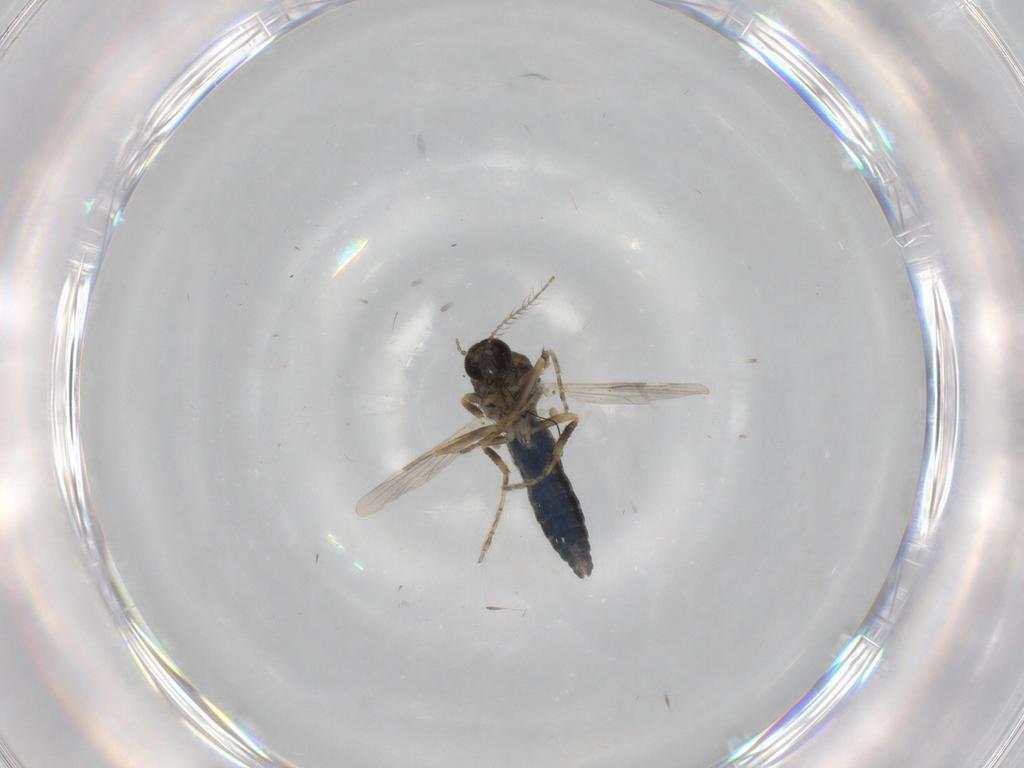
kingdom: Animalia
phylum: Arthropoda
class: Insecta
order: Diptera
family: Ceratopogonidae
